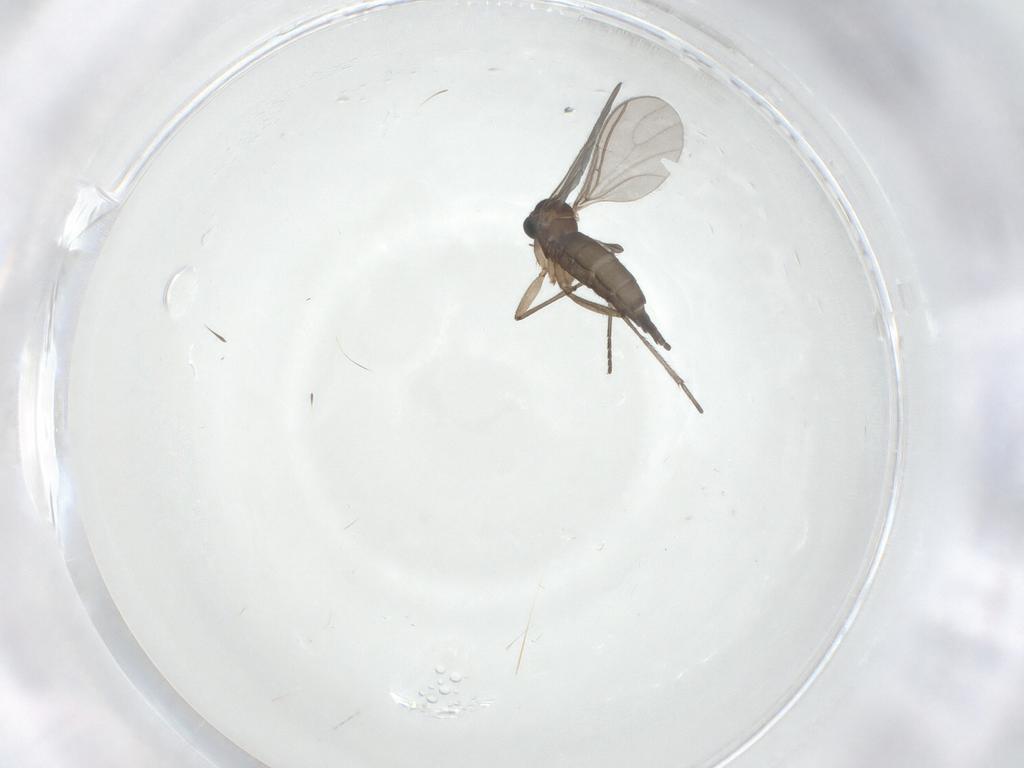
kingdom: Animalia
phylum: Arthropoda
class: Insecta
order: Diptera
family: Sciaridae
